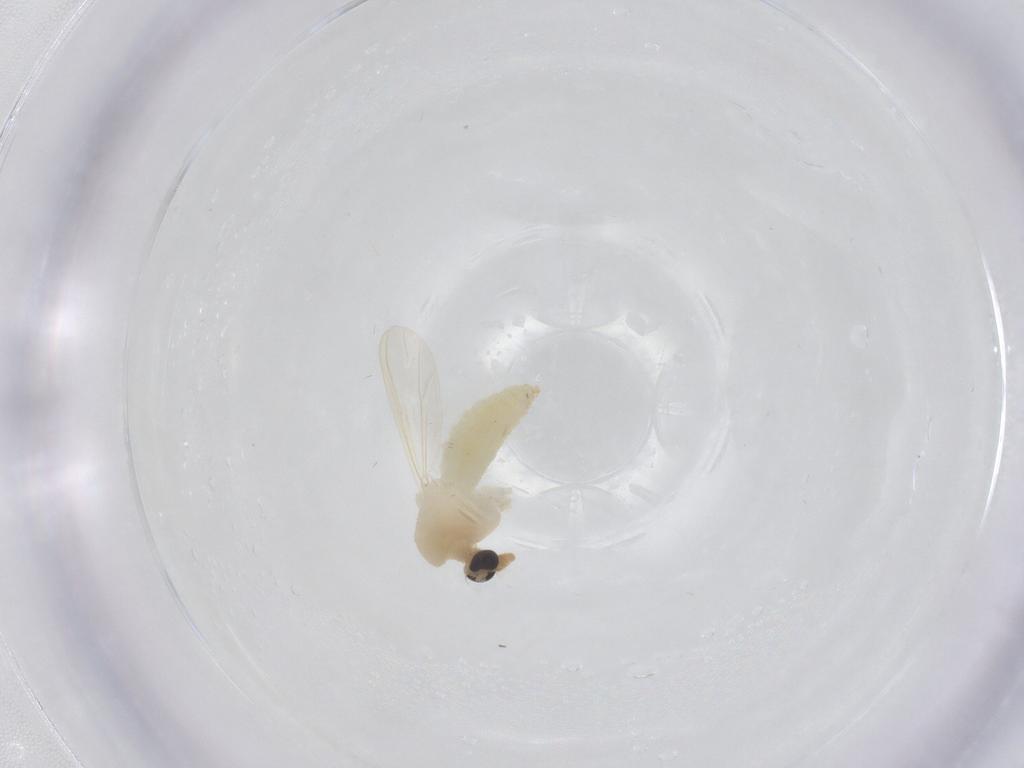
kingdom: Animalia
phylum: Arthropoda
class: Insecta
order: Diptera
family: Chironomidae
